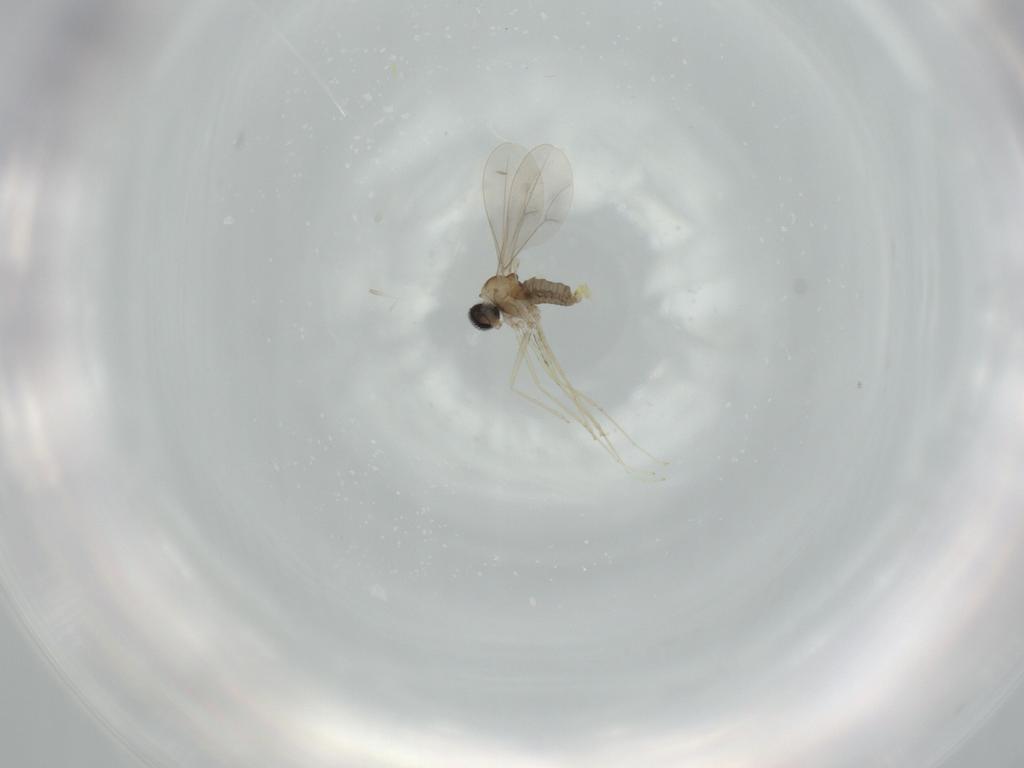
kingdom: Animalia
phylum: Arthropoda
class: Insecta
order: Diptera
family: Cecidomyiidae
